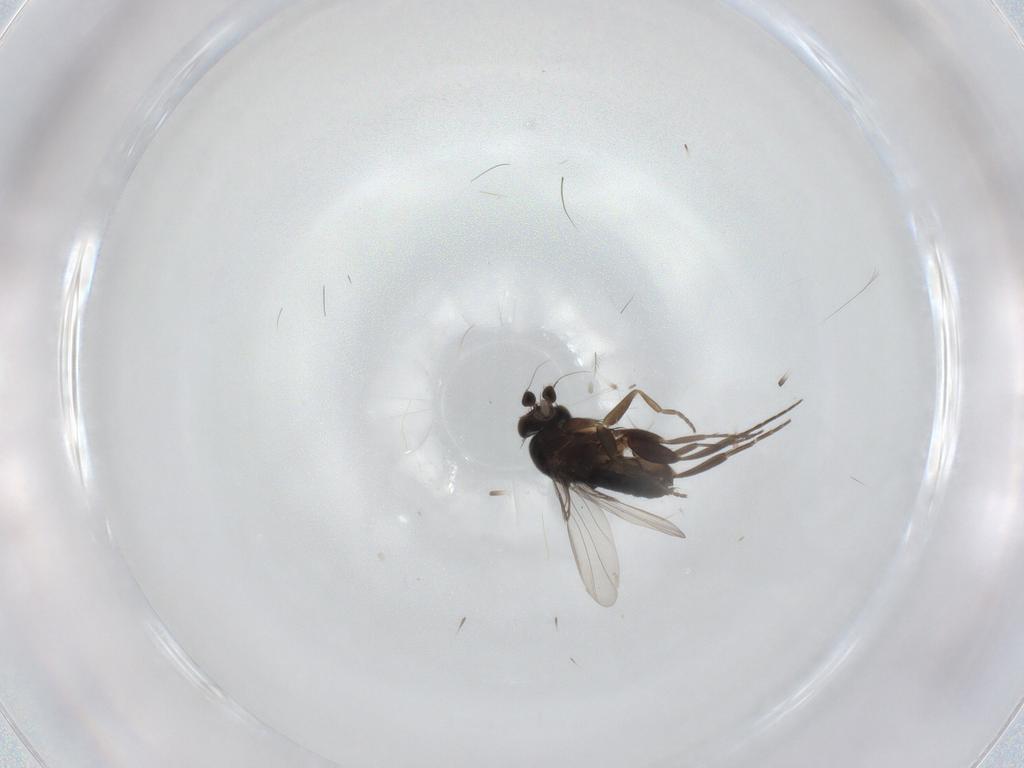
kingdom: Animalia
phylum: Arthropoda
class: Insecta
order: Diptera
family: Phoridae
